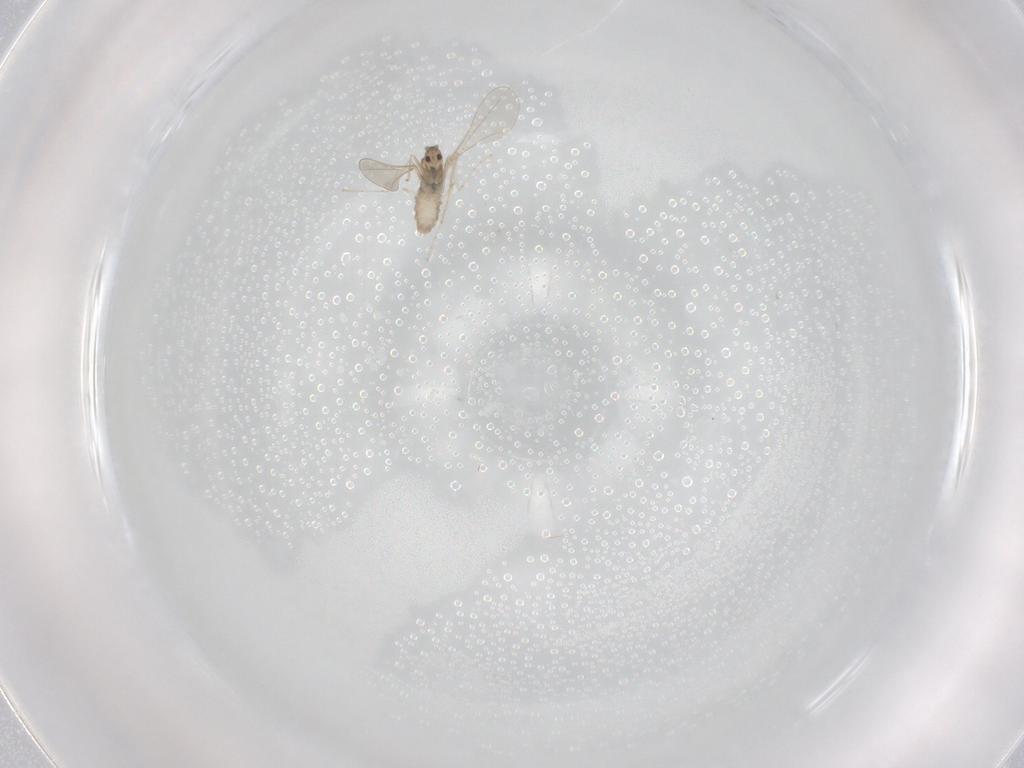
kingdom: Animalia
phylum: Arthropoda
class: Insecta
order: Diptera
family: Cecidomyiidae
